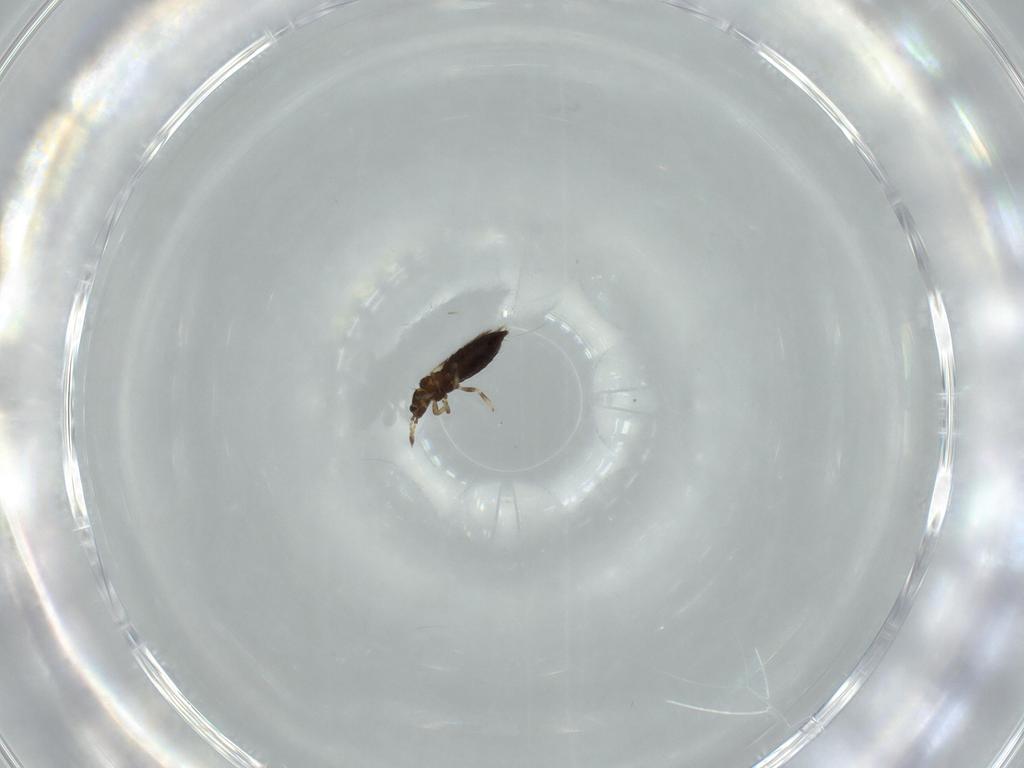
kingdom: Animalia
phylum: Arthropoda
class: Insecta
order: Thysanoptera
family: Thripidae
